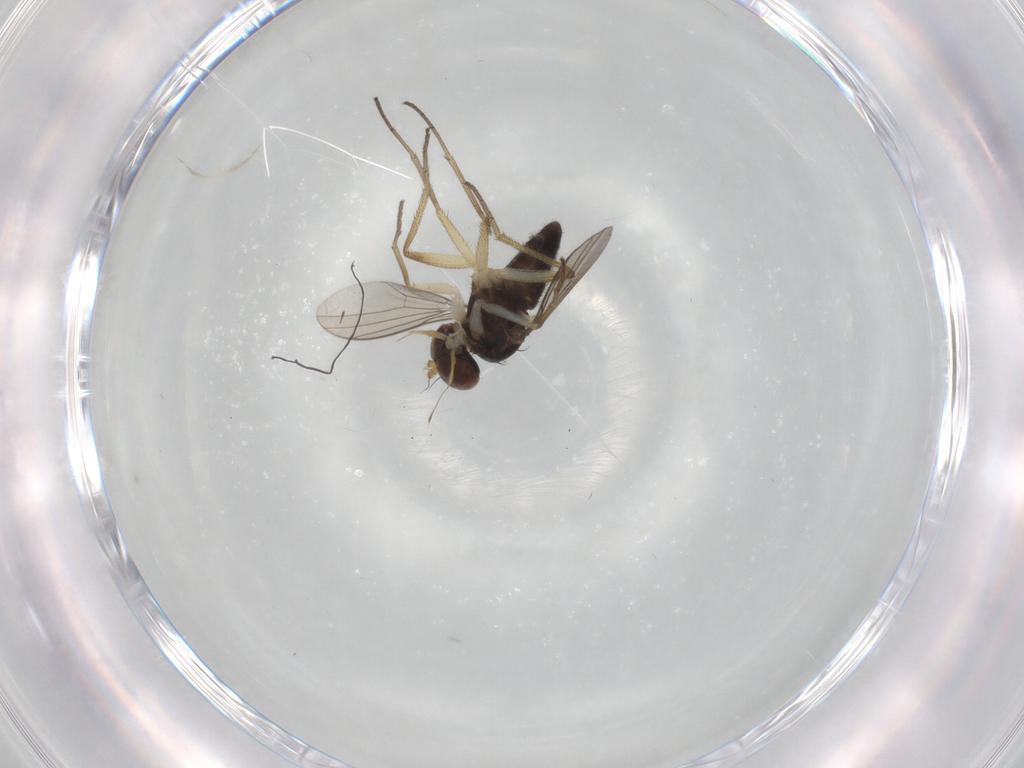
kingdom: Animalia
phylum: Arthropoda
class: Insecta
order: Diptera
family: Dolichopodidae
